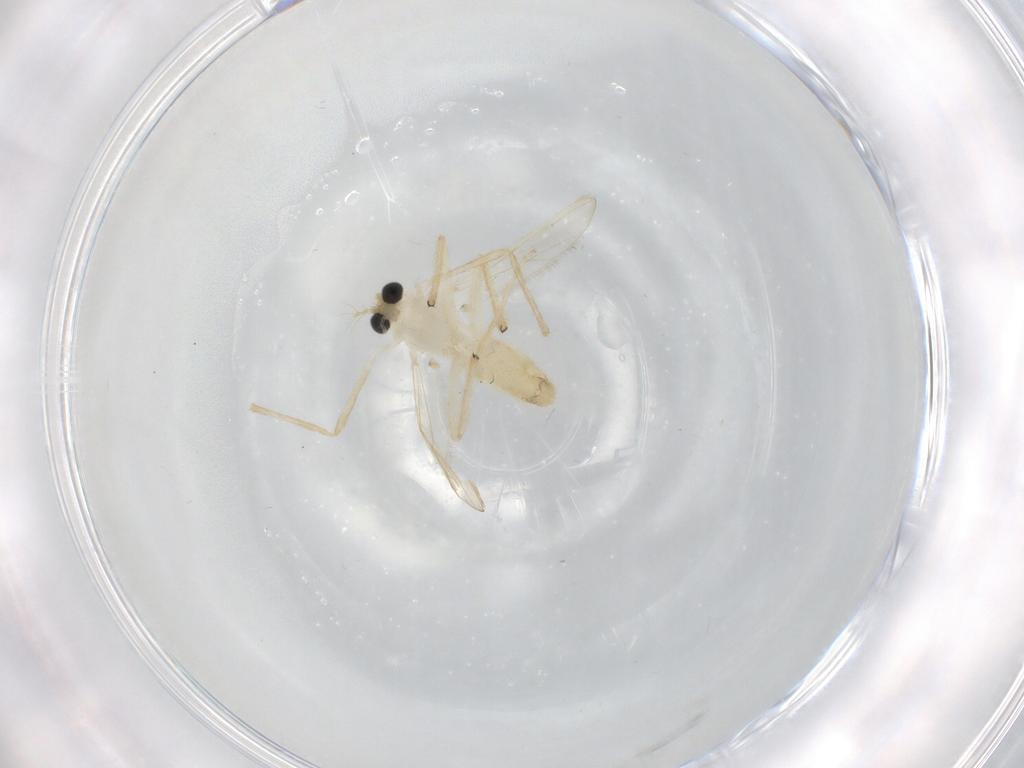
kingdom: Animalia
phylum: Arthropoda
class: Insecta
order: Diptera
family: Chironomidae
